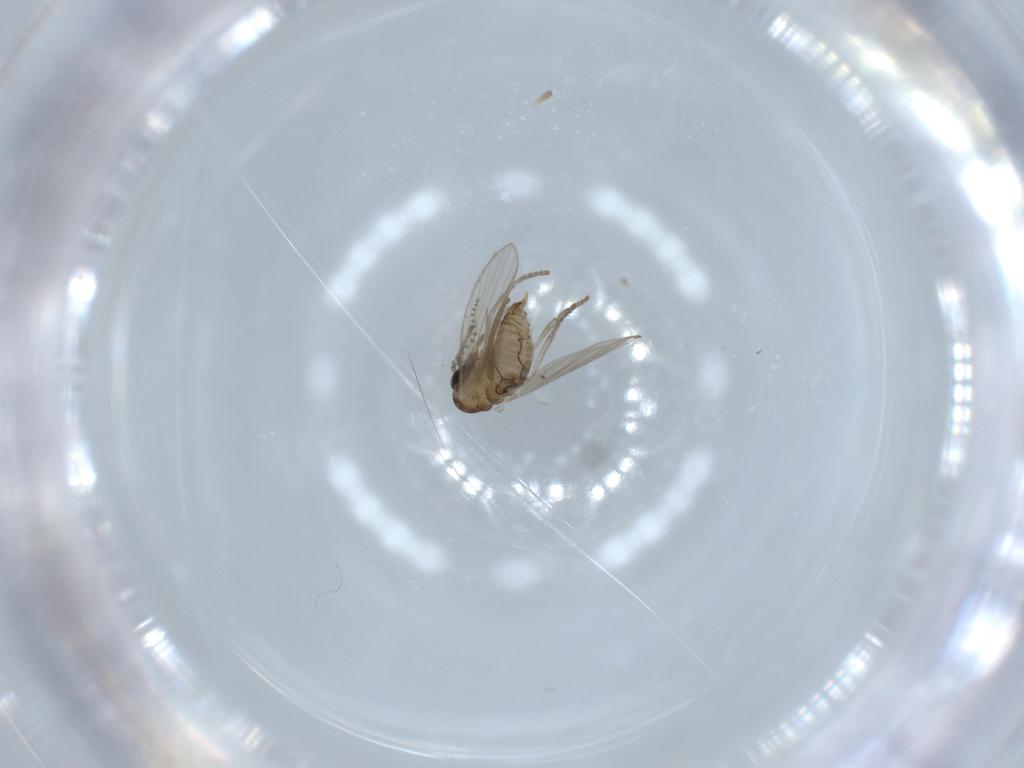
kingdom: Animalia
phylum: Arthropoda
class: Insecta
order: Diptera
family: Psychodidae
